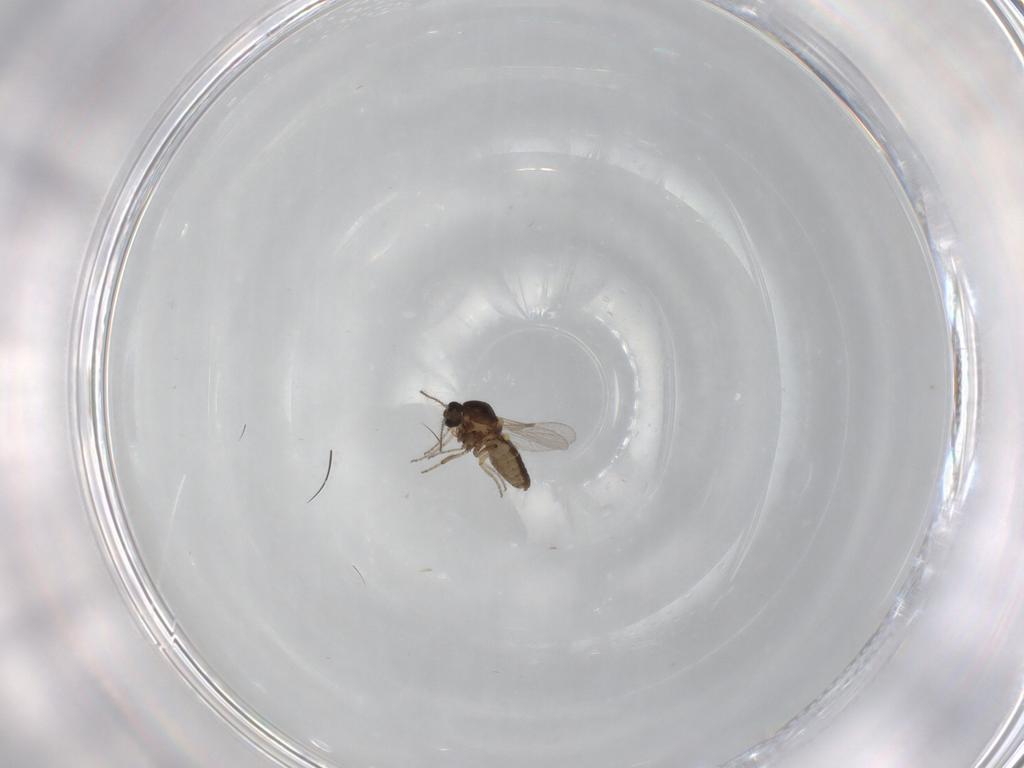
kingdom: Animalia
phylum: Arthropoda
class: Insecta
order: Diptera
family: Ceratopogonidae
